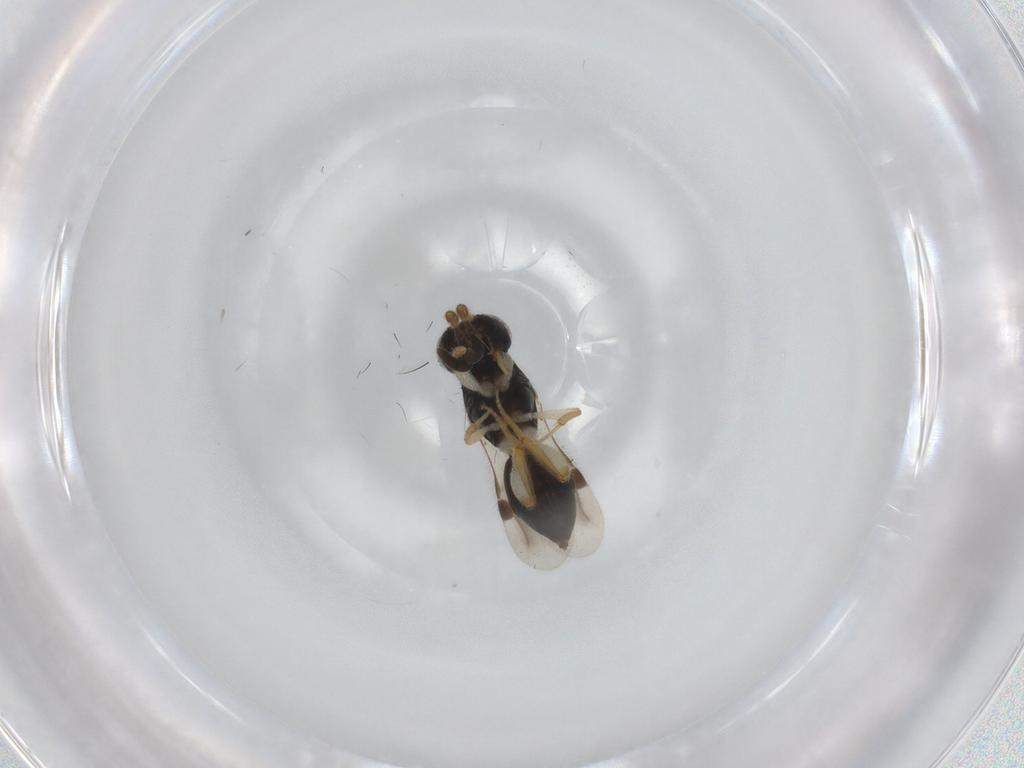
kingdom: Animalia
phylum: Arthropoda
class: Insecta
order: Hymenoptera
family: Megaspilidae
